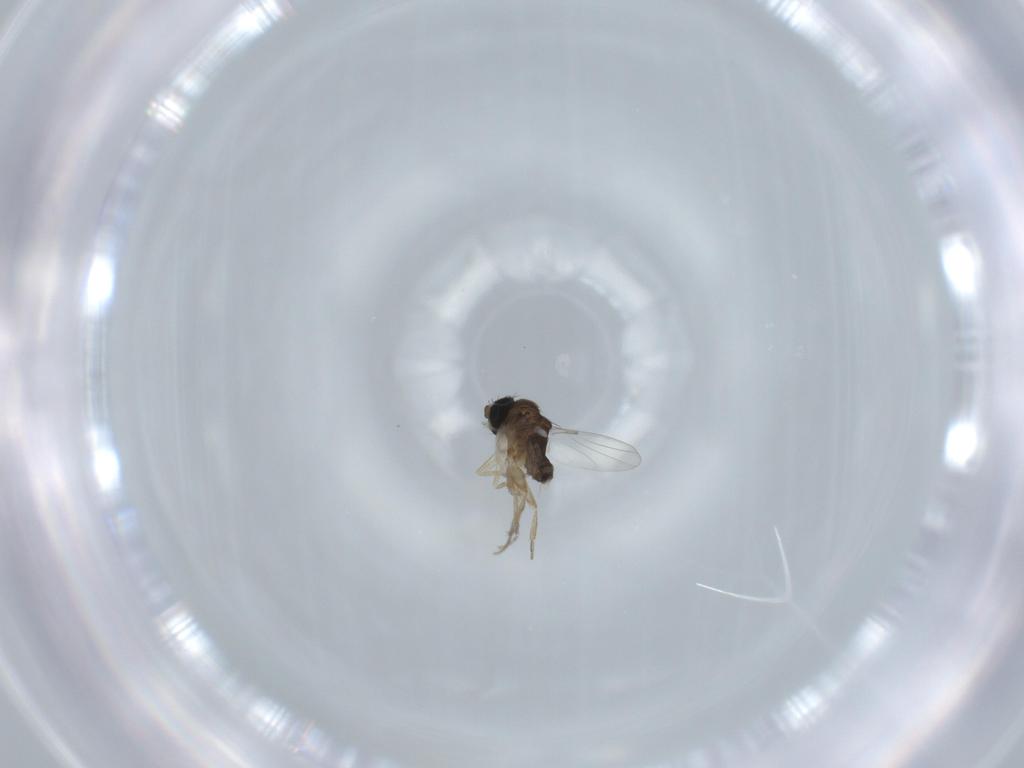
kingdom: Animalia
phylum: Arthropoda
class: Insecta
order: Diptera
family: Phoridae
